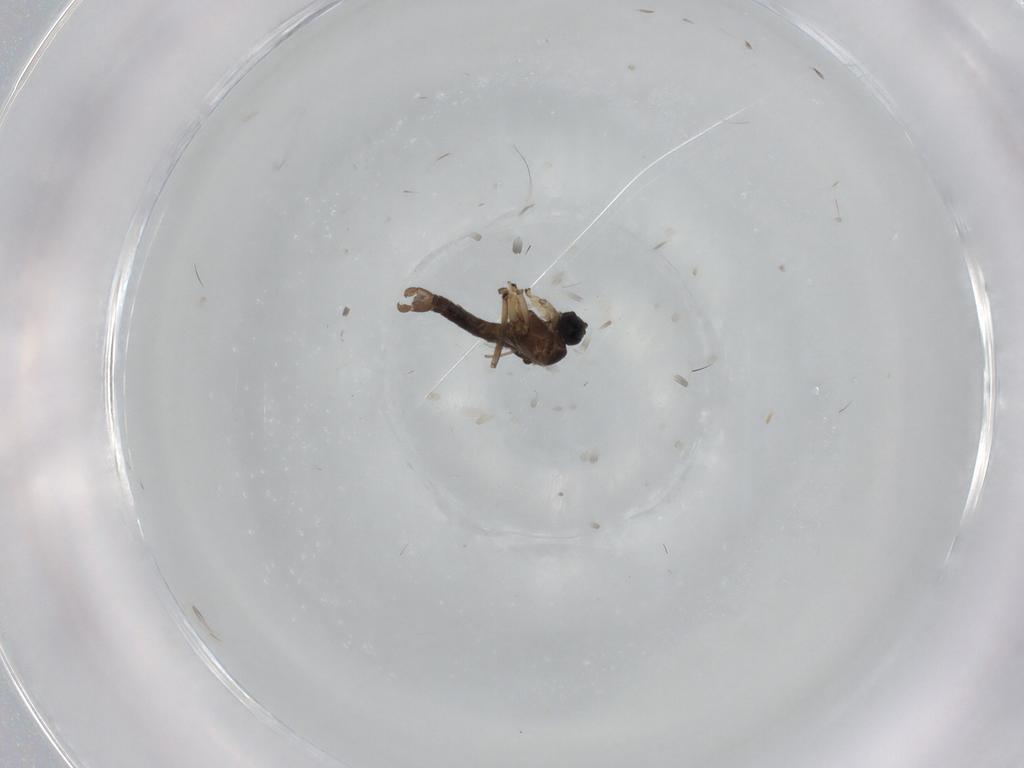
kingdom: Animalia
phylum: Arthropoda
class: Insecta
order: Diptera
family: Sciaridae
